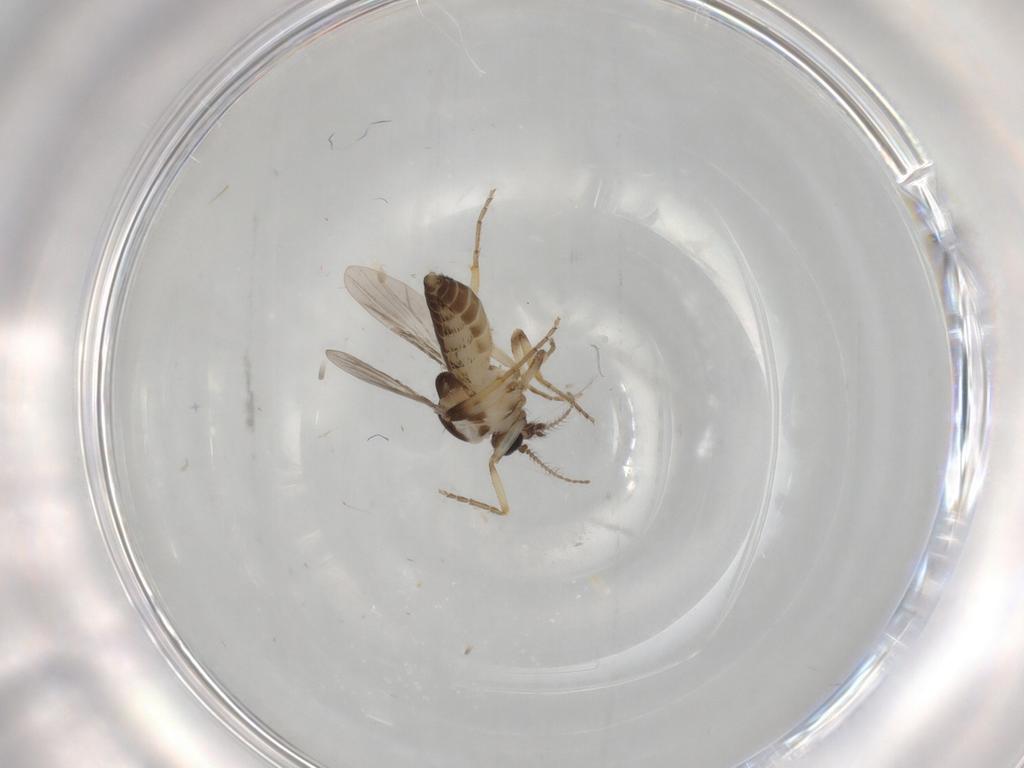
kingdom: Animalia
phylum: Arthropoda
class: Insecta
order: Diptera
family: Ceratopogonidae
